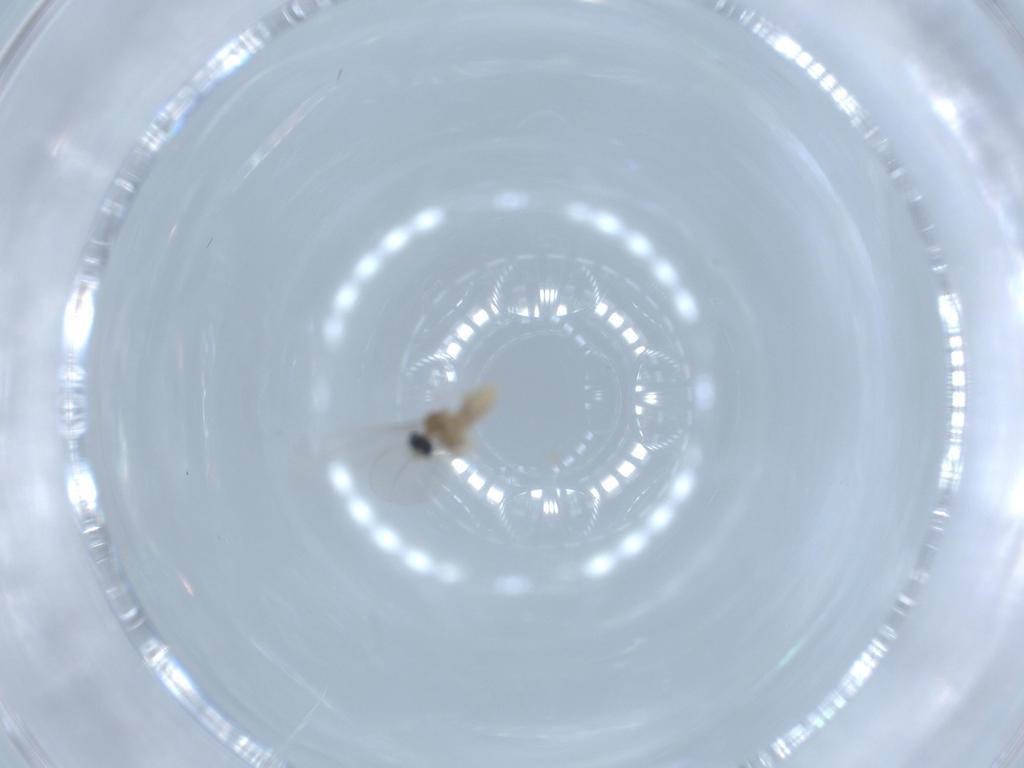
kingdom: Animalia
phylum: Arthropoda
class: Insecta
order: Diptera
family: Cecidomyiidae
